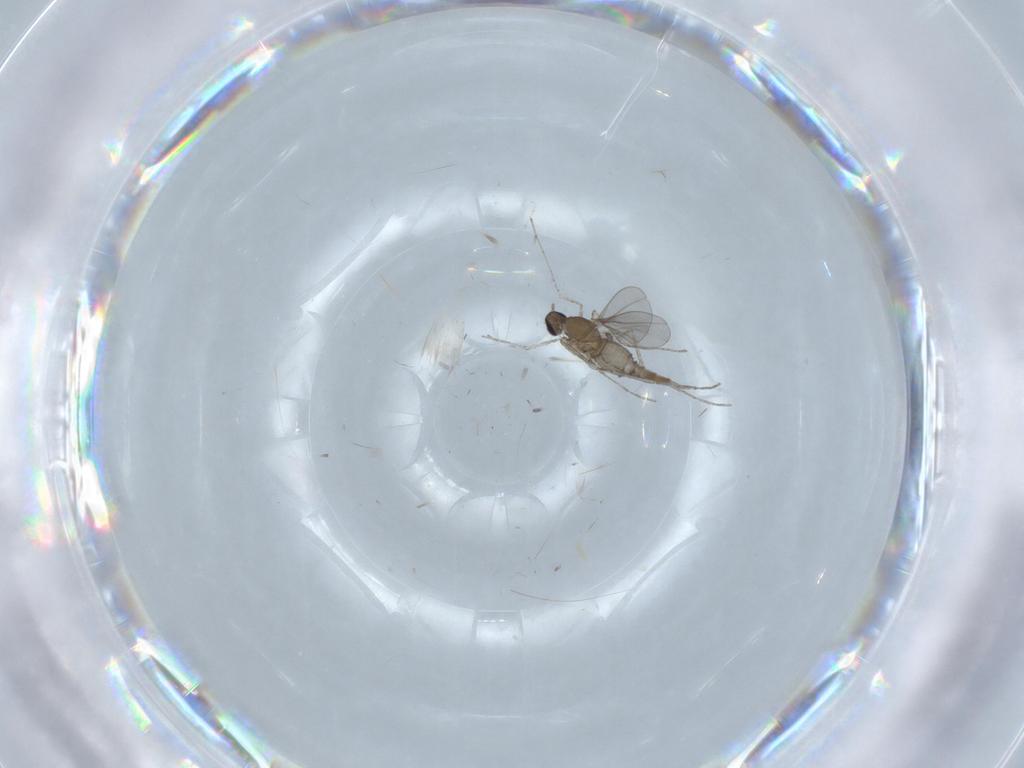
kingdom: Animalia
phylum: Arthropoda
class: Insecta
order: Diptera
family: Cecidomyiidae
